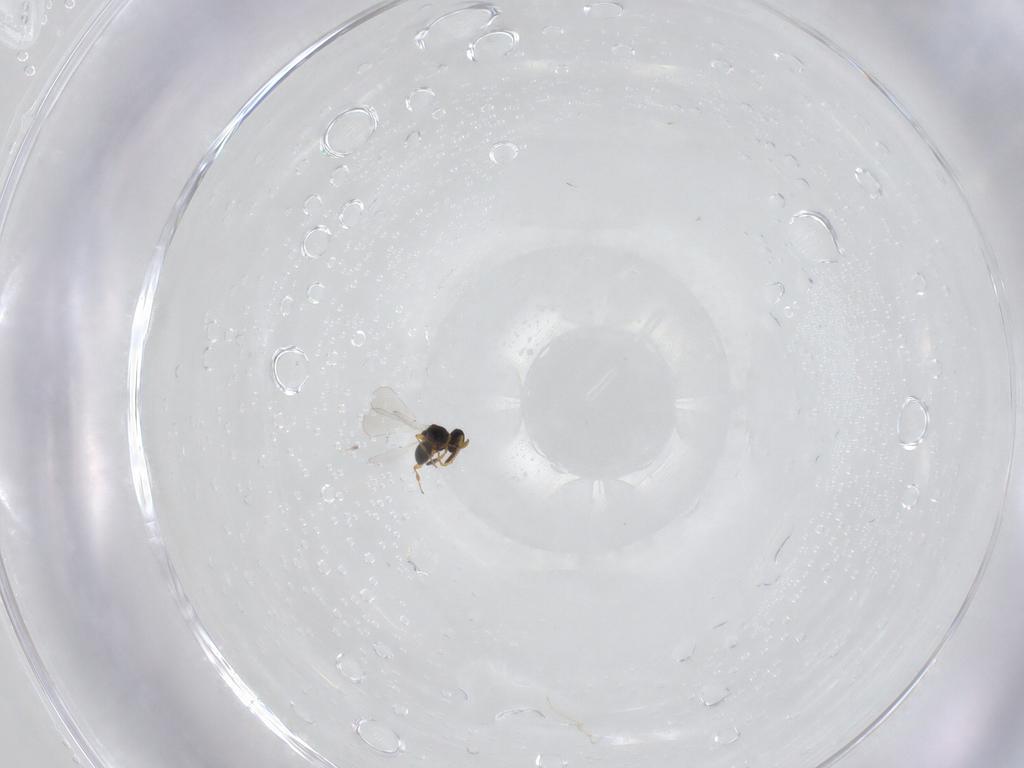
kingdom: Animalia
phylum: Arthropoda
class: Insecta
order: Hymenoptera
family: Platygastridae
